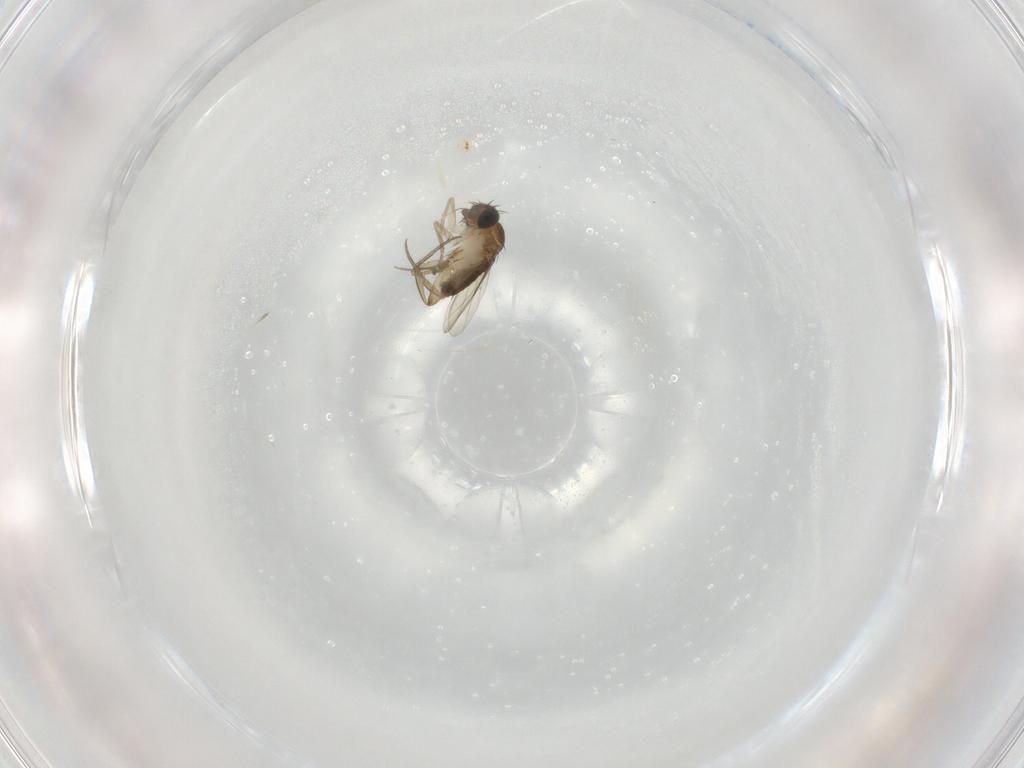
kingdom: Animalia
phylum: Arthropoda
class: Insecta
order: Diptera
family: Phoridae
